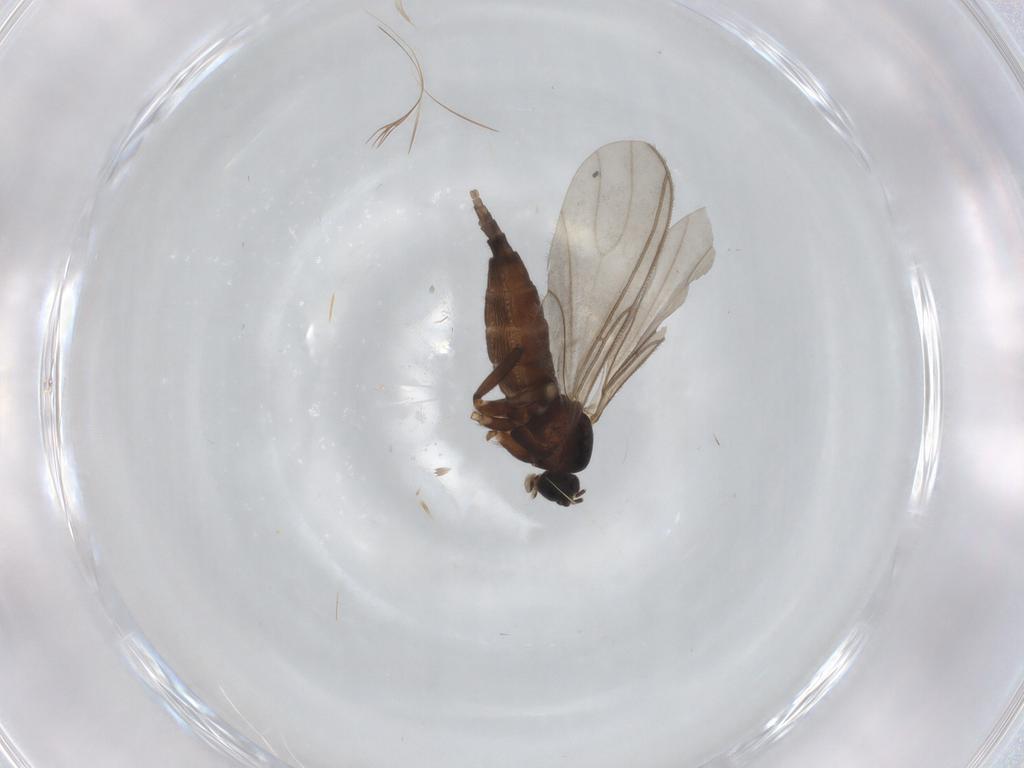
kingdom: Animalia
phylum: Arthropoda
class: Insecta
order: Diptera
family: Sciaridae
